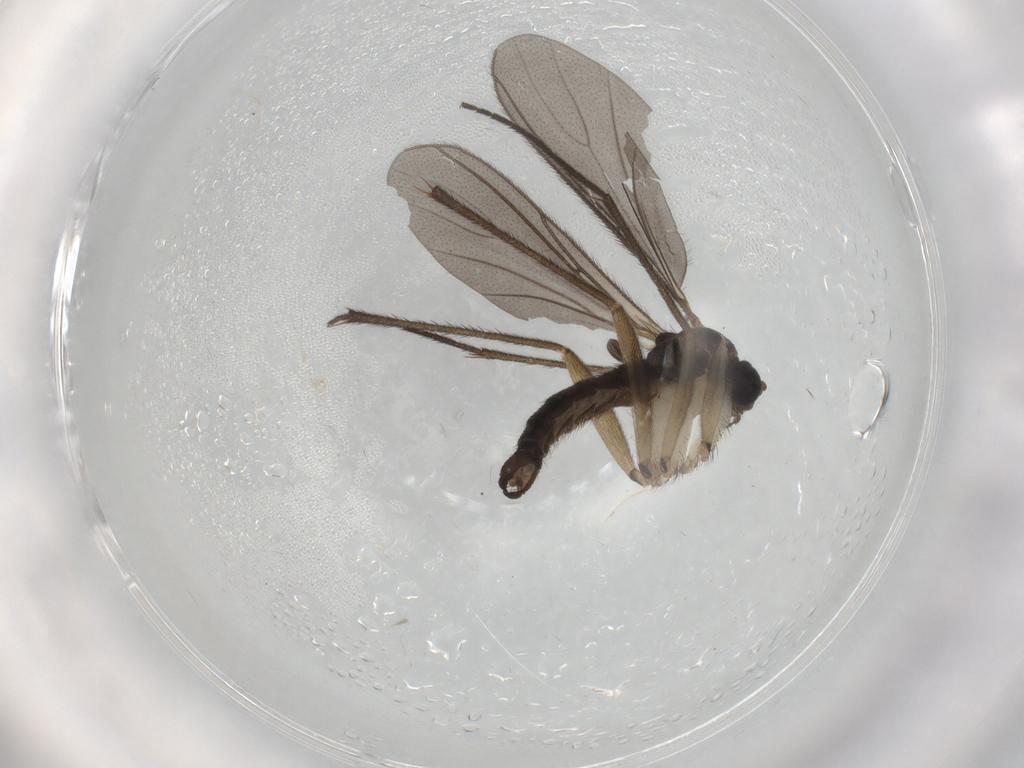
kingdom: Animalia
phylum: Arthropoda
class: Insecta
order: Diptera
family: Sciaridae
